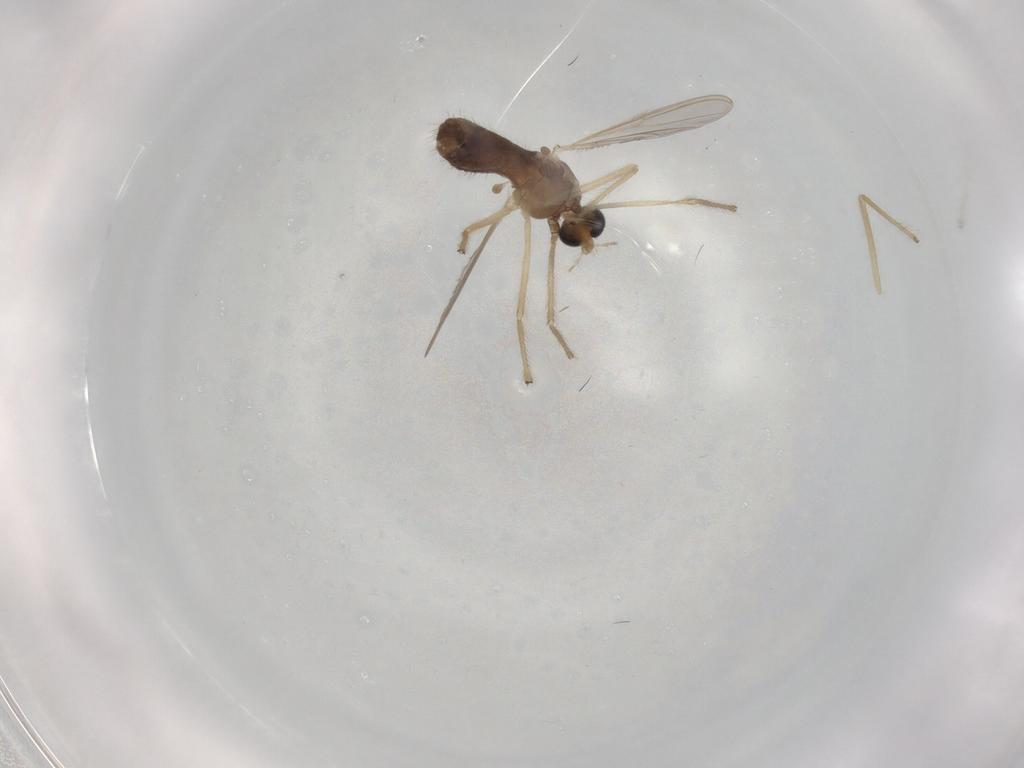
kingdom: Animalia
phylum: Arthropoda
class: Insecta
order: Diptera
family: Chironomidae
